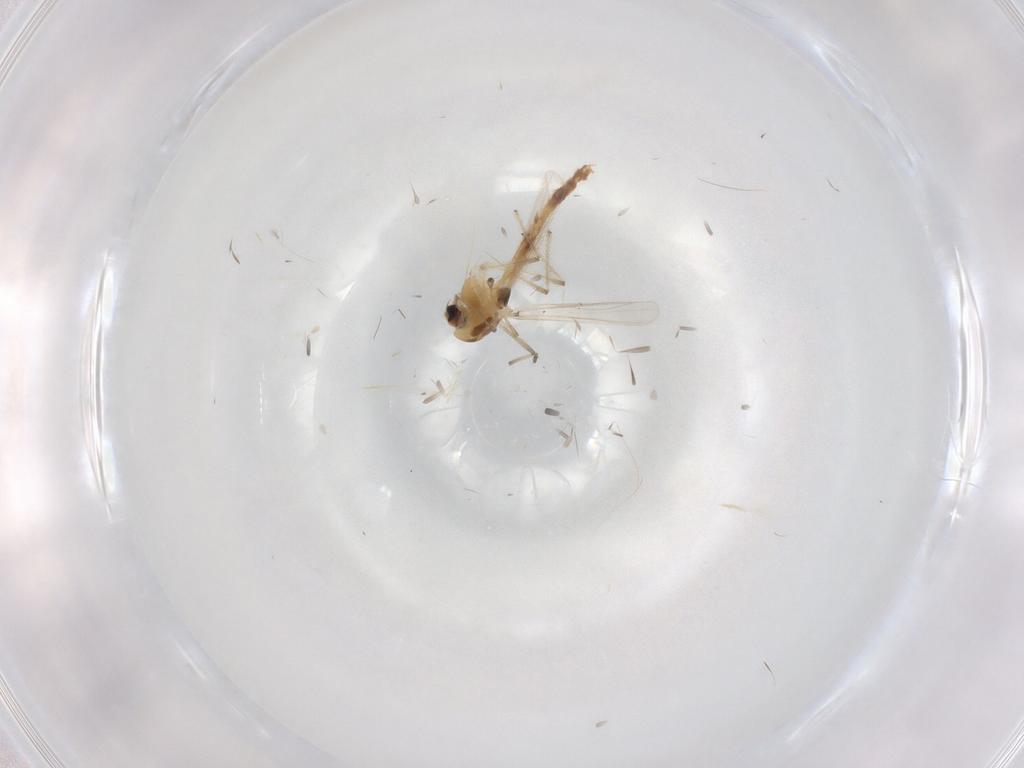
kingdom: Animalia
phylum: Arthropoda
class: Insecta
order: Diptera
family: Chironomidae
